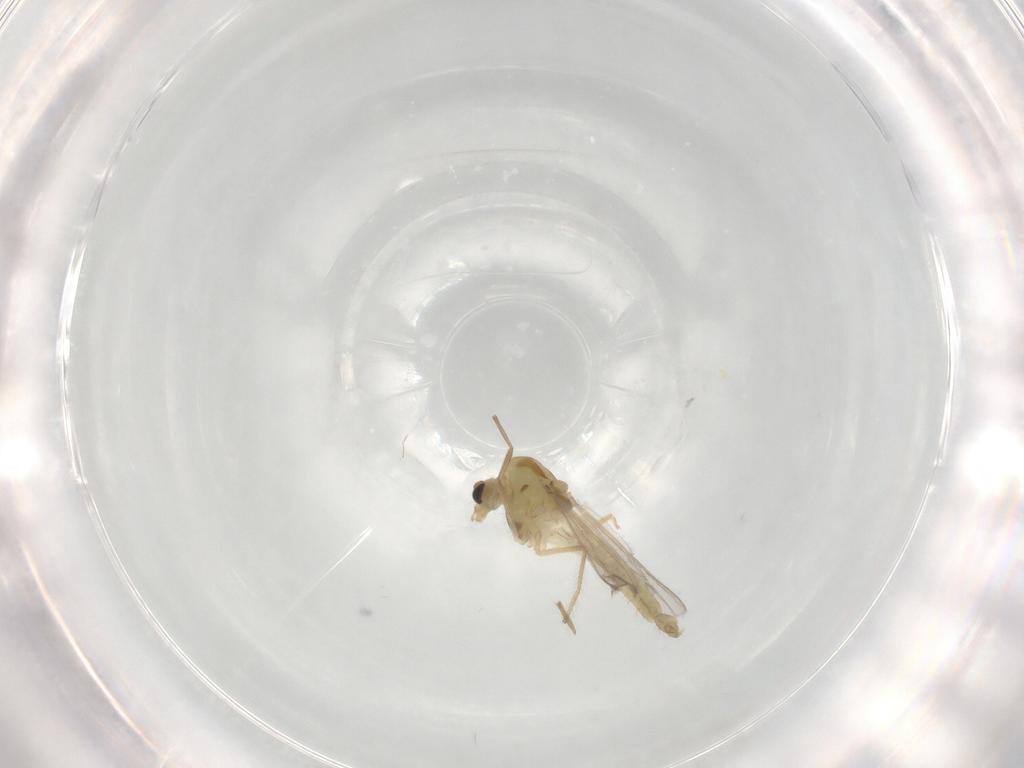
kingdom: Animalia
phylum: Arthropoda
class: Insecta
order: Diptera
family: Chironomidae
